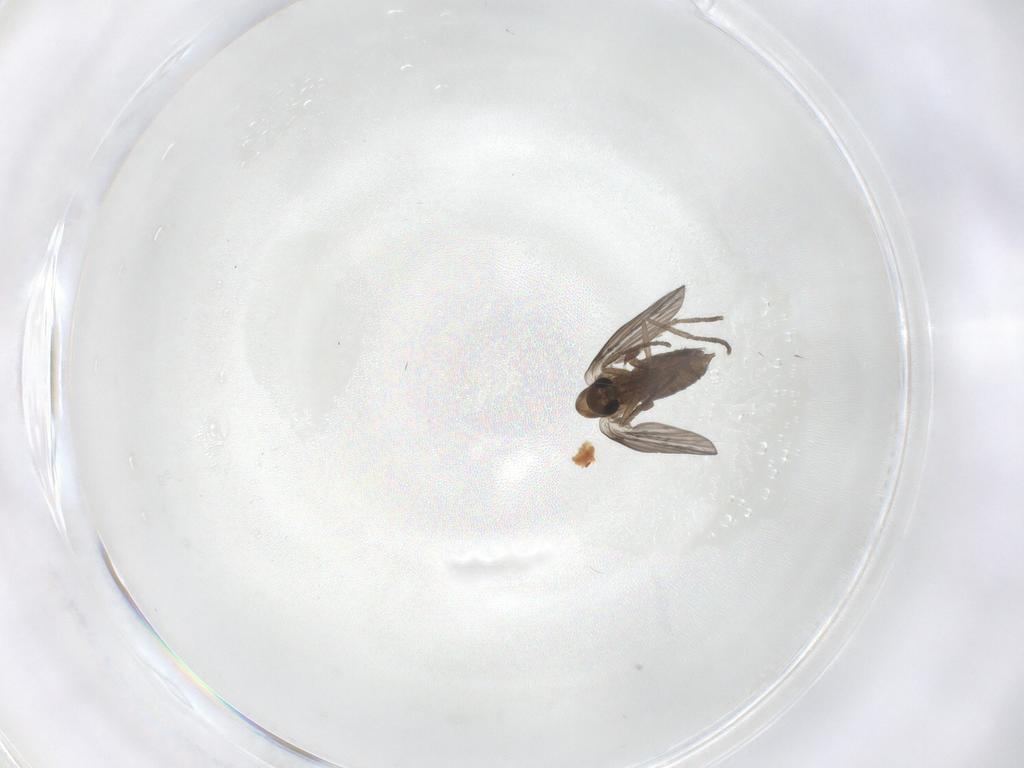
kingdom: Animalia
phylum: Arthropoda
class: Insecta
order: Diptera
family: Psychodidae
